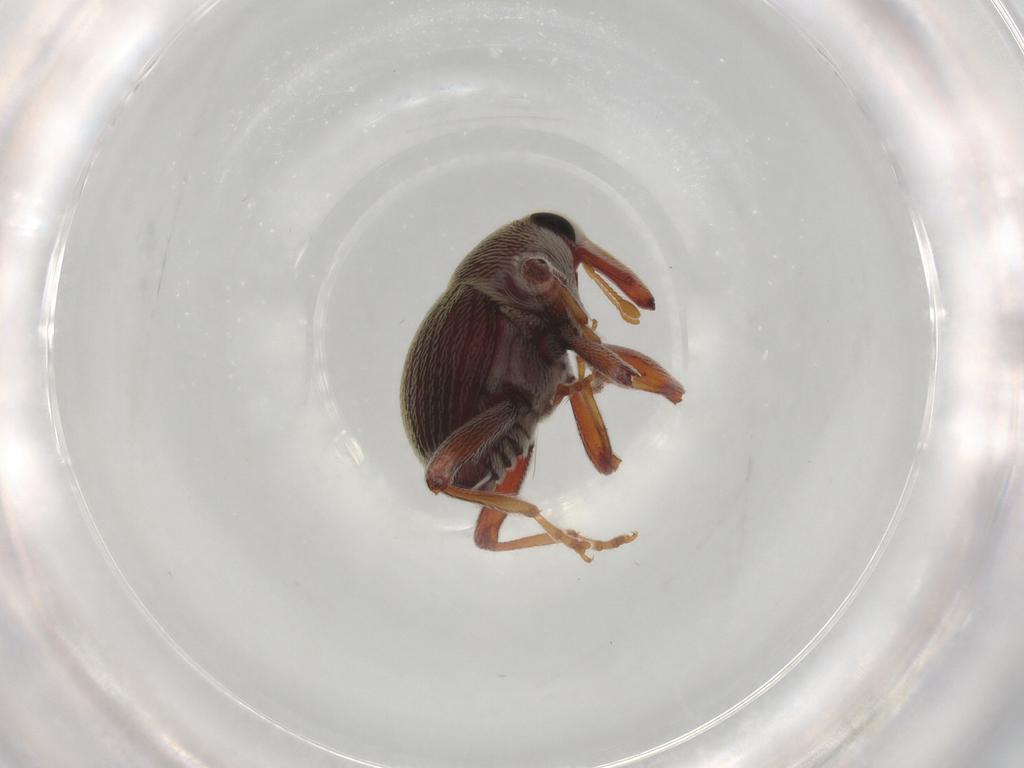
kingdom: Animalia
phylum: Arthropoda
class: Insecta
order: Coleoptera
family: Curculionidae
